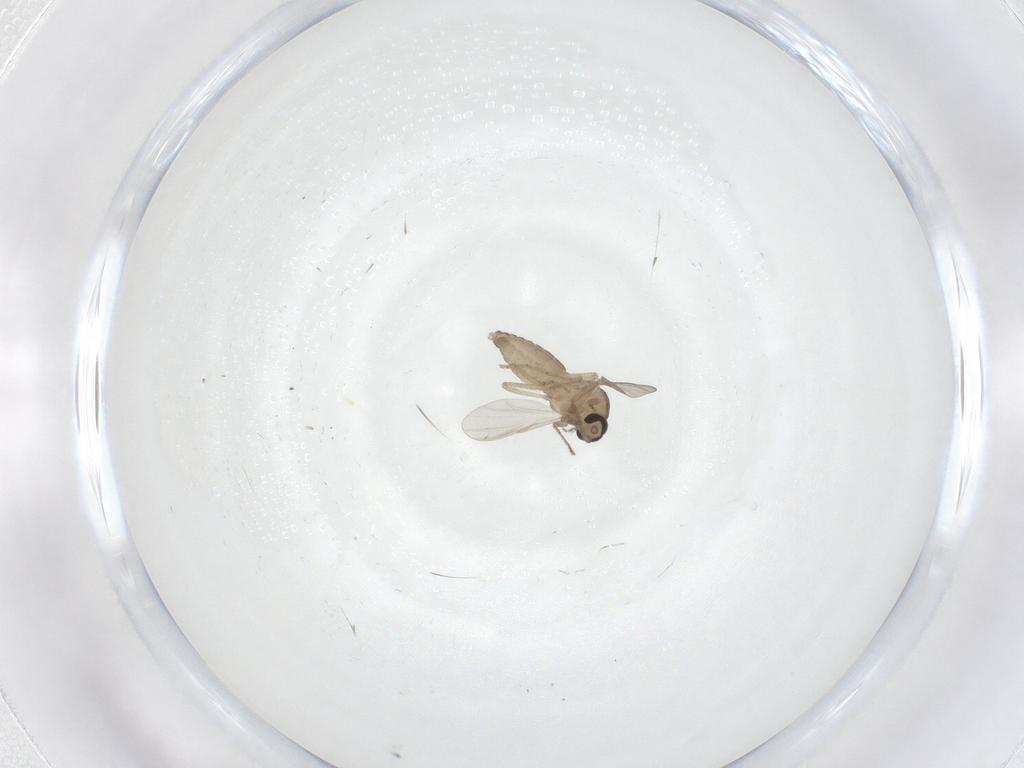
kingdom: Animalia
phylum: Arthropoda
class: Insecta
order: Diptera
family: Ceratopogonidae
